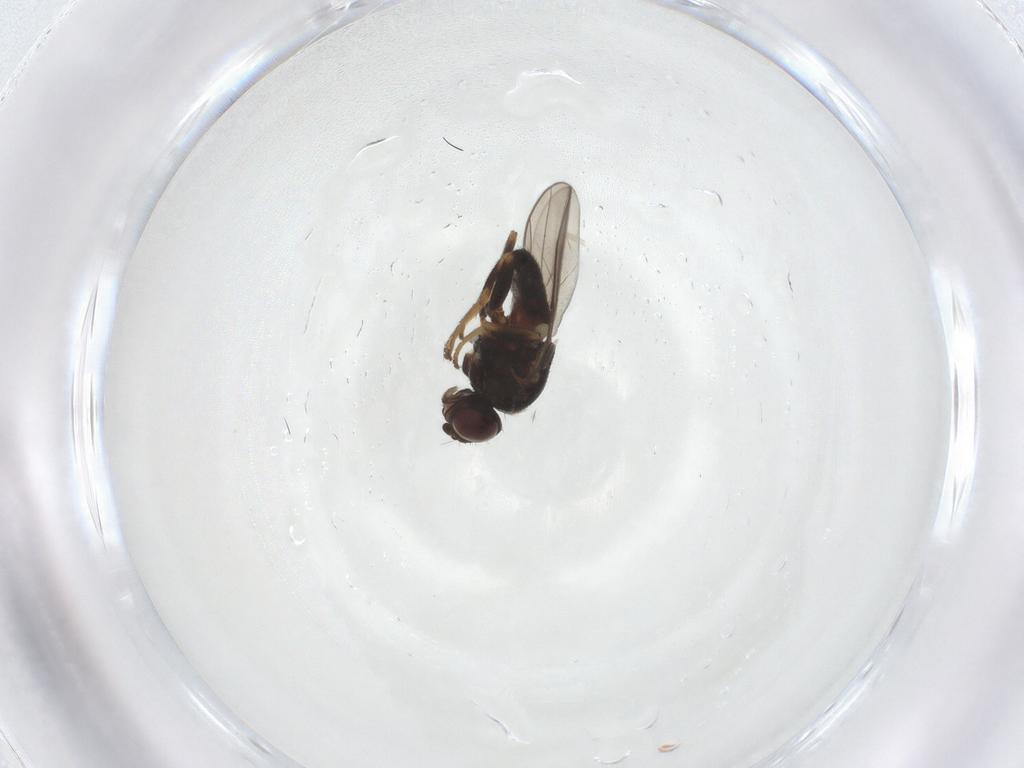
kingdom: Animalia
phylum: Arthropoda
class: Insecta
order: Diptera
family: Chloropidae
